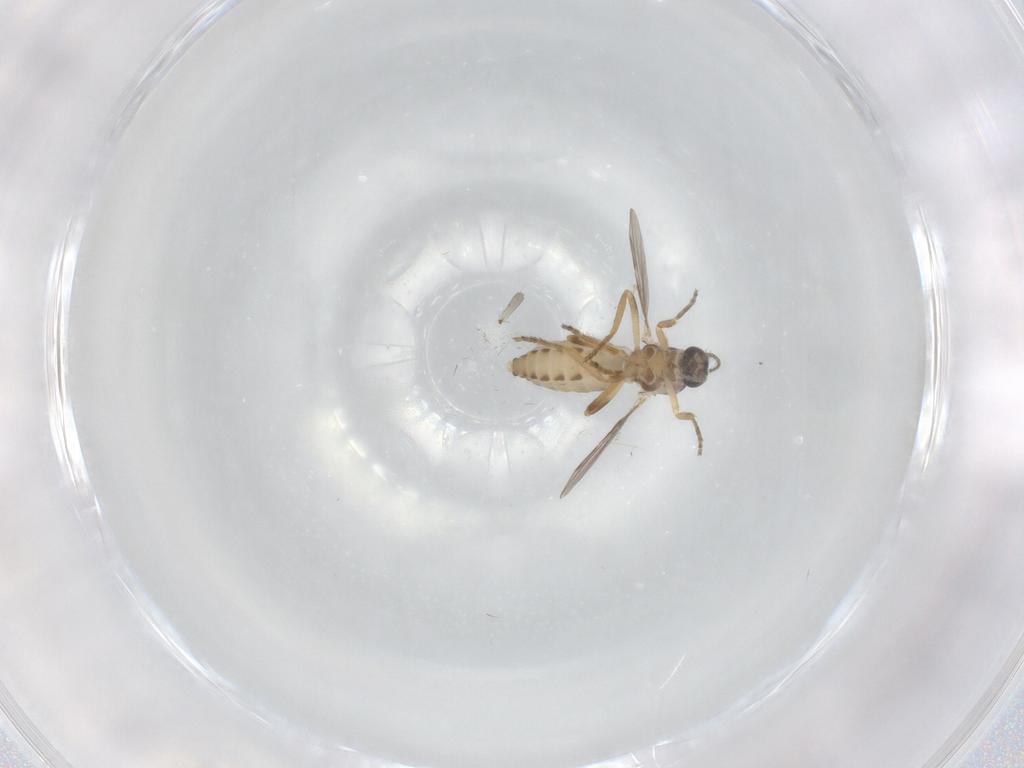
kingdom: Animalia
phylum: Arthropoda
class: Insecta
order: Diptera
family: Ceratopogonidae
